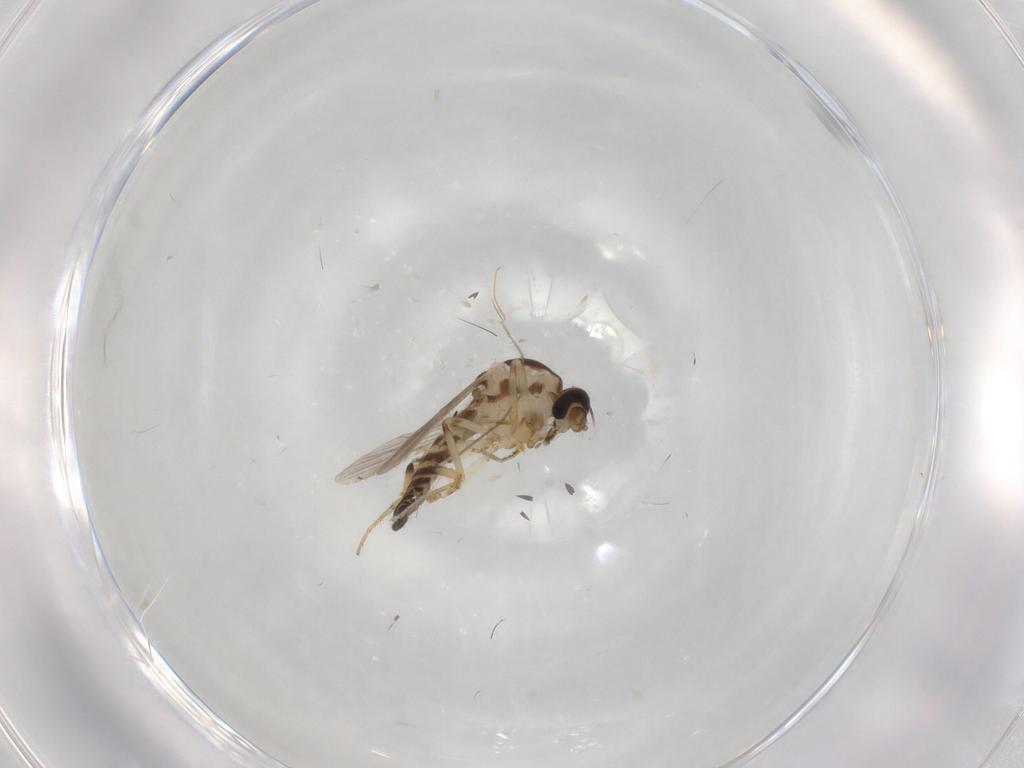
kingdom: Animalia
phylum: Arthropoda
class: Insecta
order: Diptera
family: Ceratopogonidae
